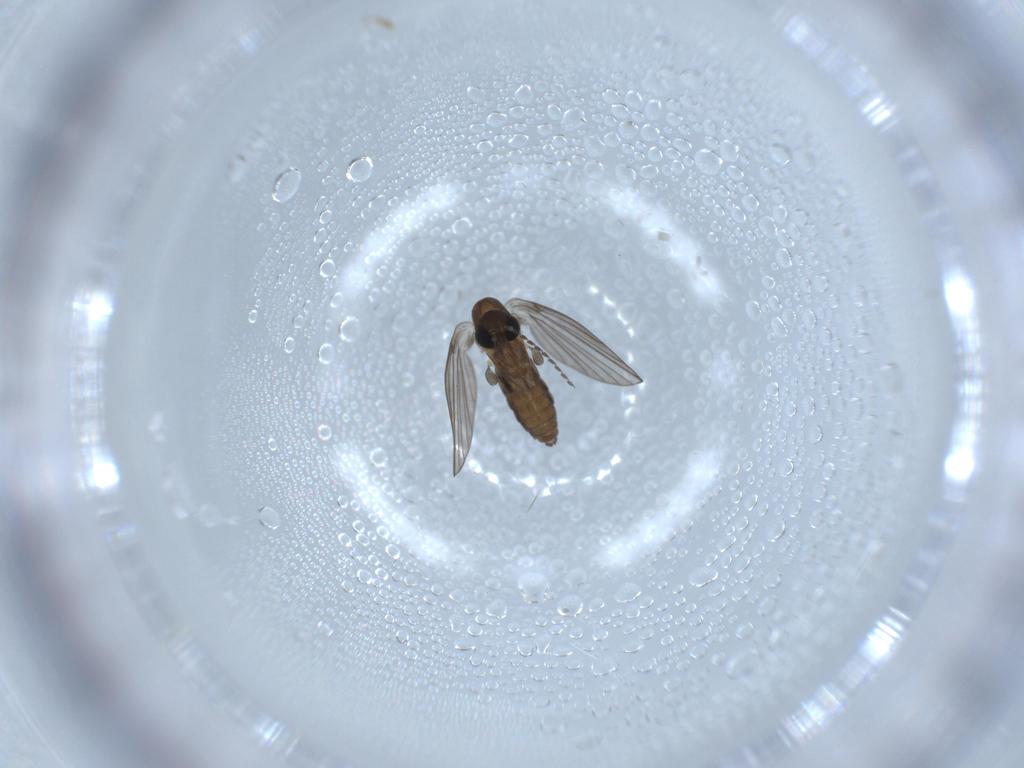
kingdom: Animalia
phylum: Arthropoda
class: Insecta
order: Diptera
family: Psychodidae
